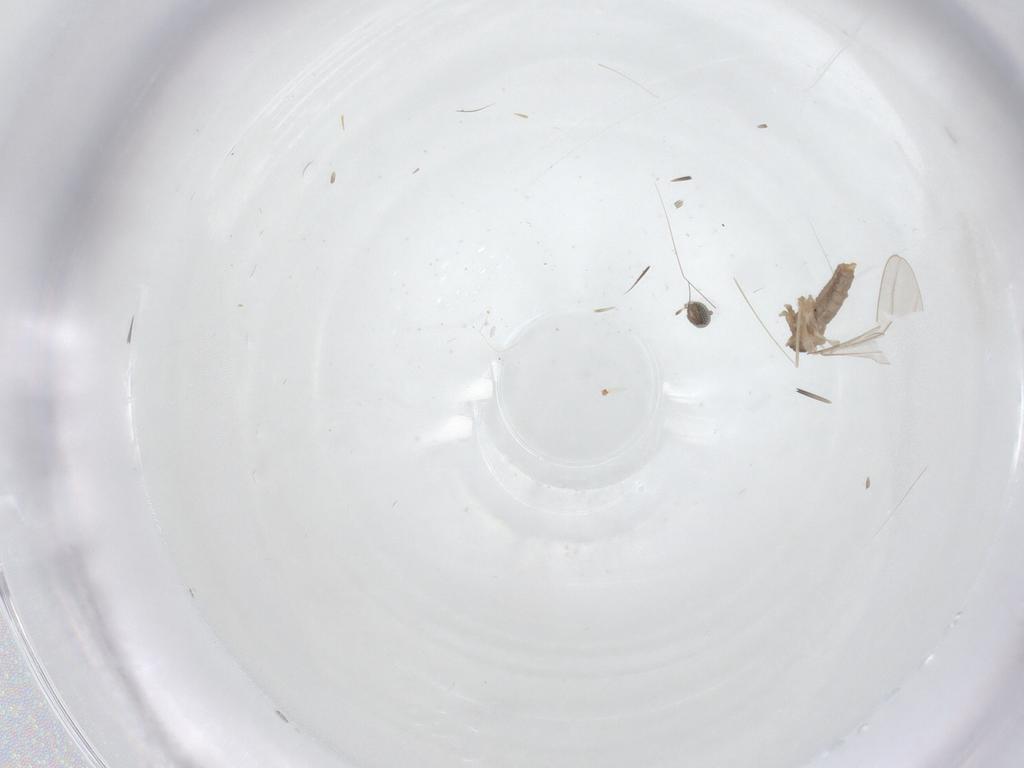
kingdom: Animalia
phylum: Arthropoda
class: Insecta
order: Diptera
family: Cecidomyiidae
